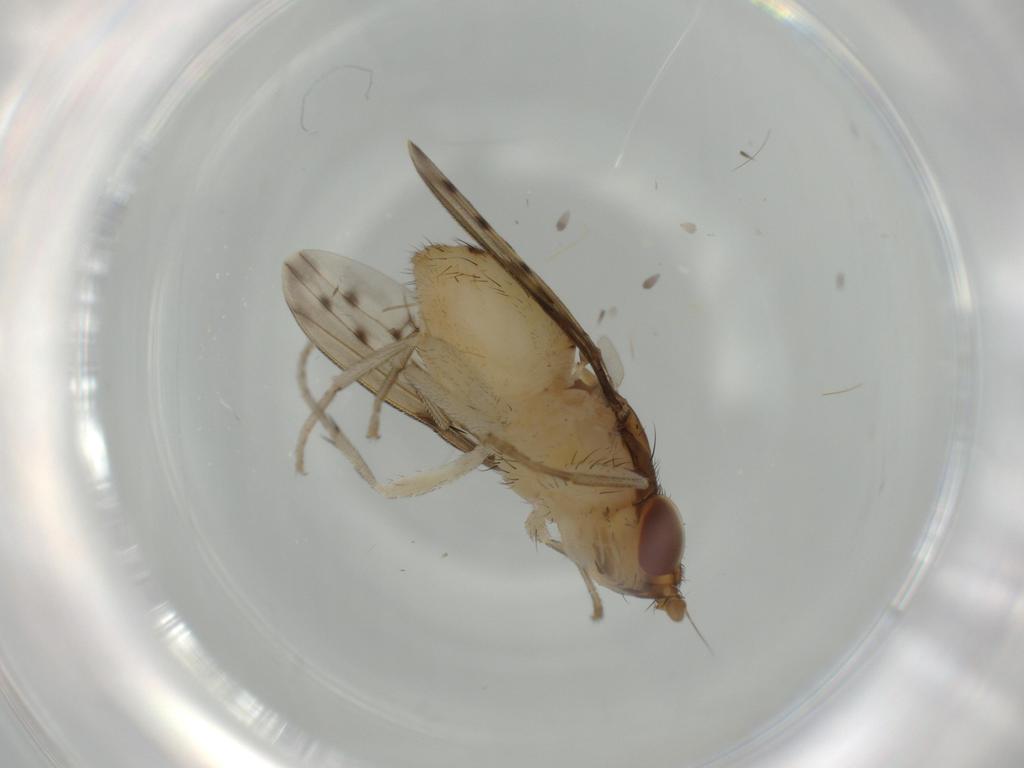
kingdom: Animalia
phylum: Arthropoda
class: Insecta
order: Diptera
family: Lauxaniidae
